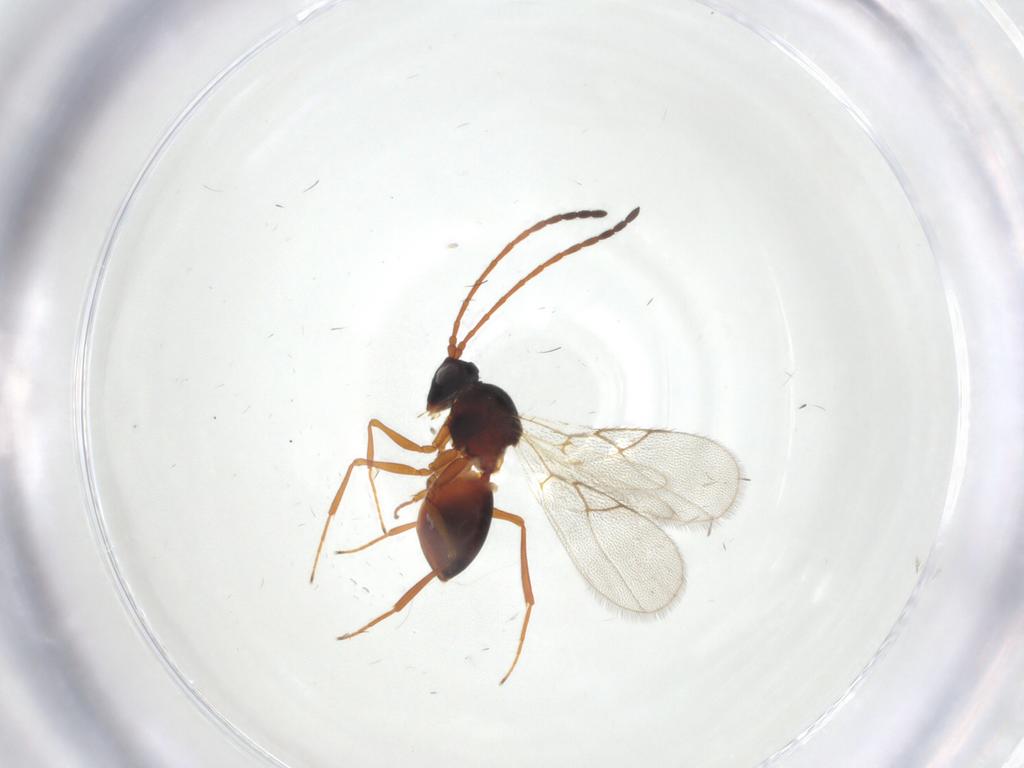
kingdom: Animalia
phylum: Arthropoda
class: Insecta
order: Hymenoptera
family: Figitidae
